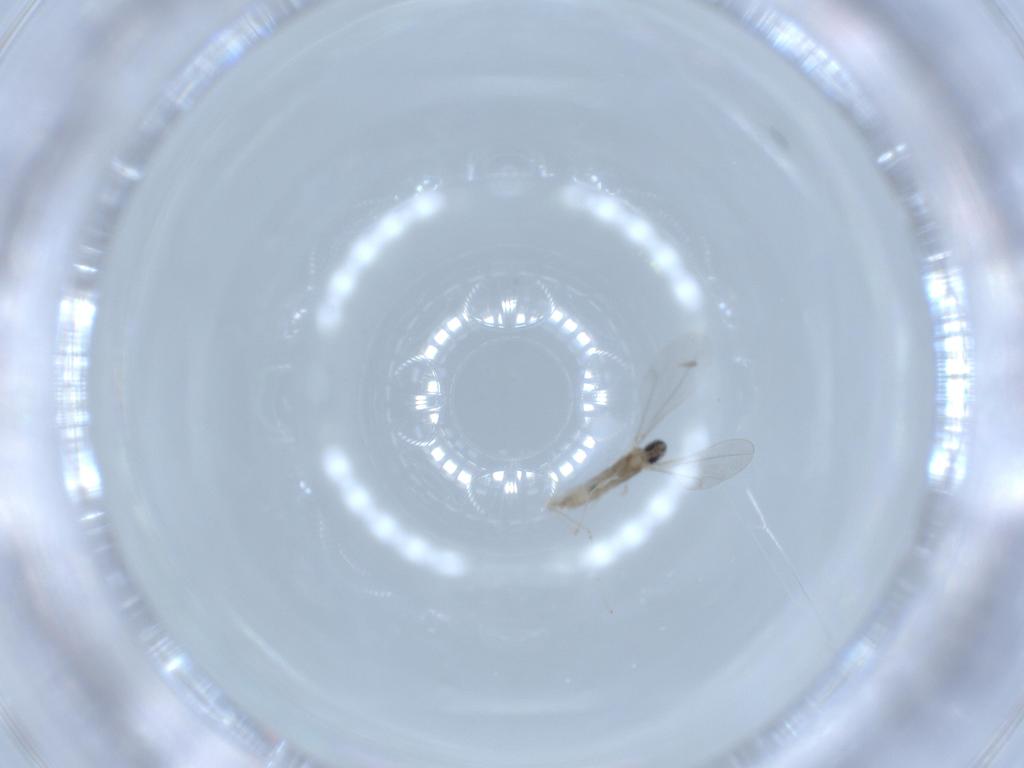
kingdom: Animalia
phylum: Arthropoda
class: Insecta
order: Diptera
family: Cecidomyiidae
